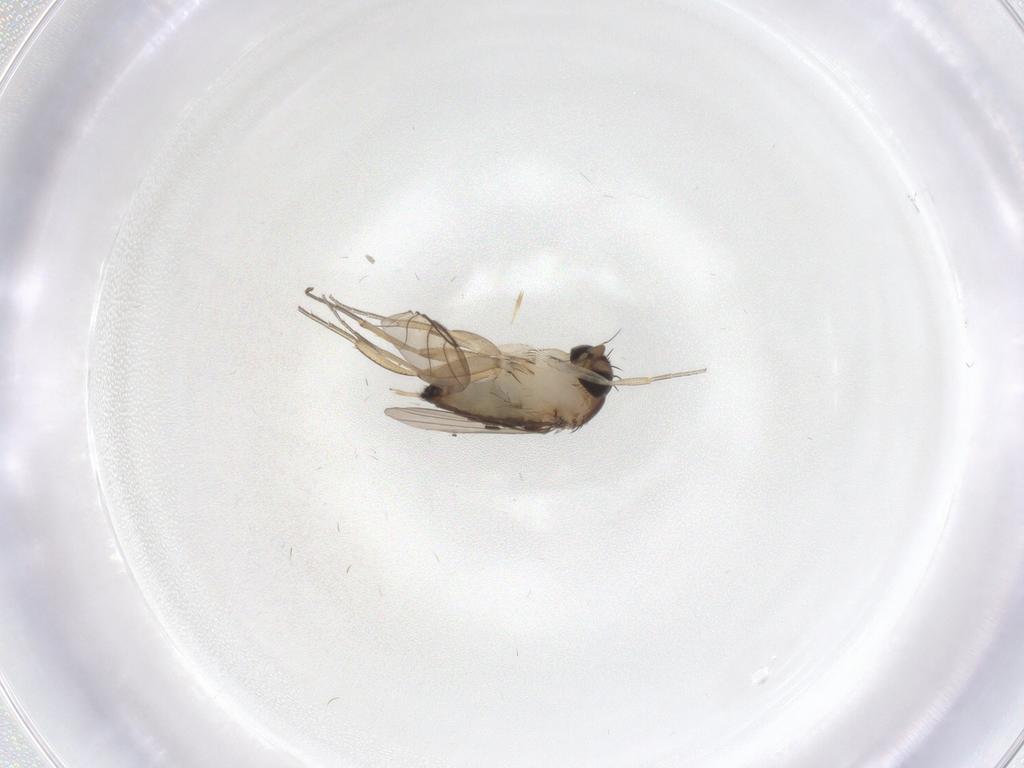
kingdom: Animalia
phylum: Arthropoda
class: Insecta
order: Diptera
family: Phoridae
